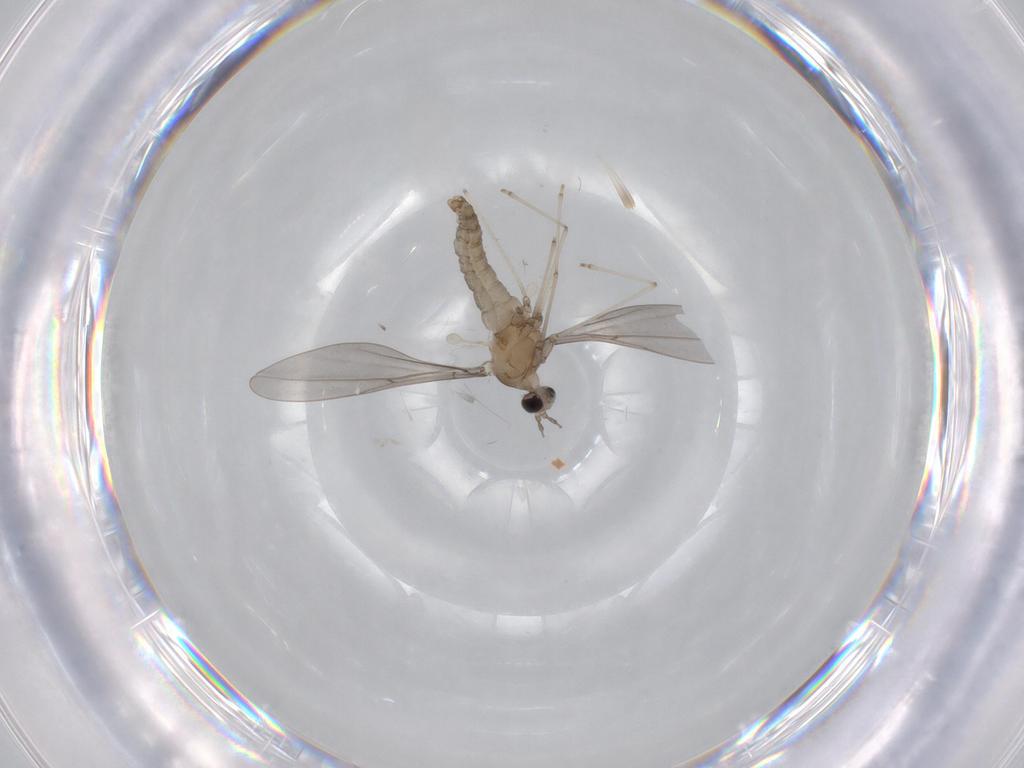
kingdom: Animalia
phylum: Arthropoda
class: Insecta
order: Diptera
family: Cecidomyiidae
